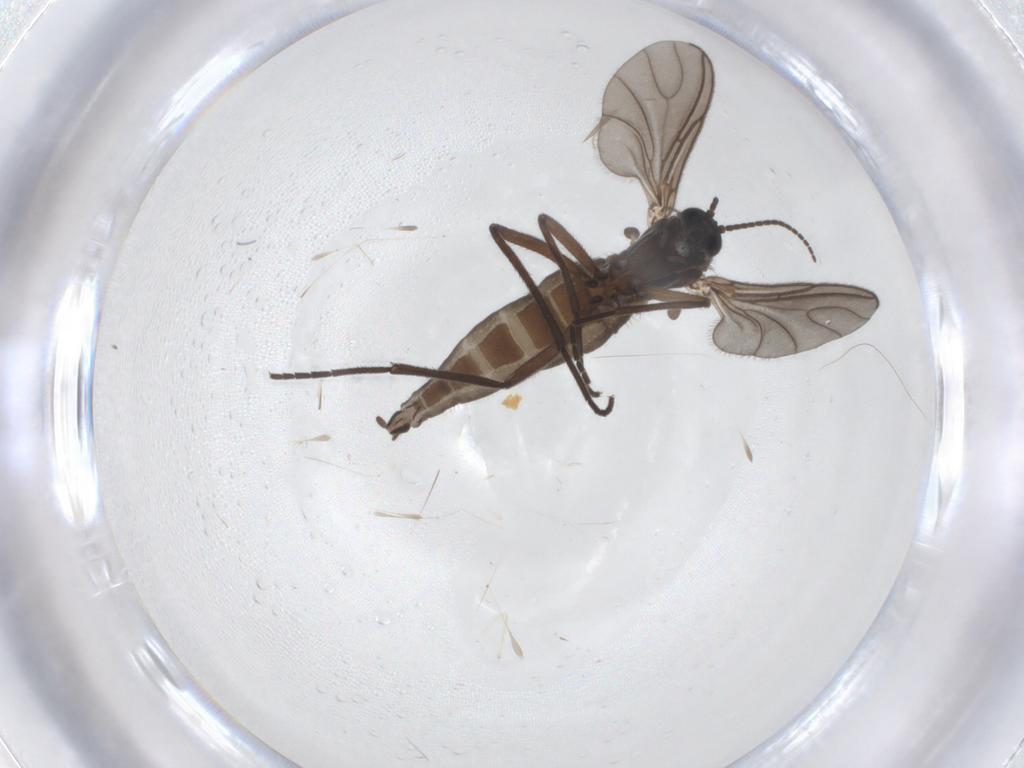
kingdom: Animalia
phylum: Arthropoda
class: Insecta
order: Diptera
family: Sciaridae
